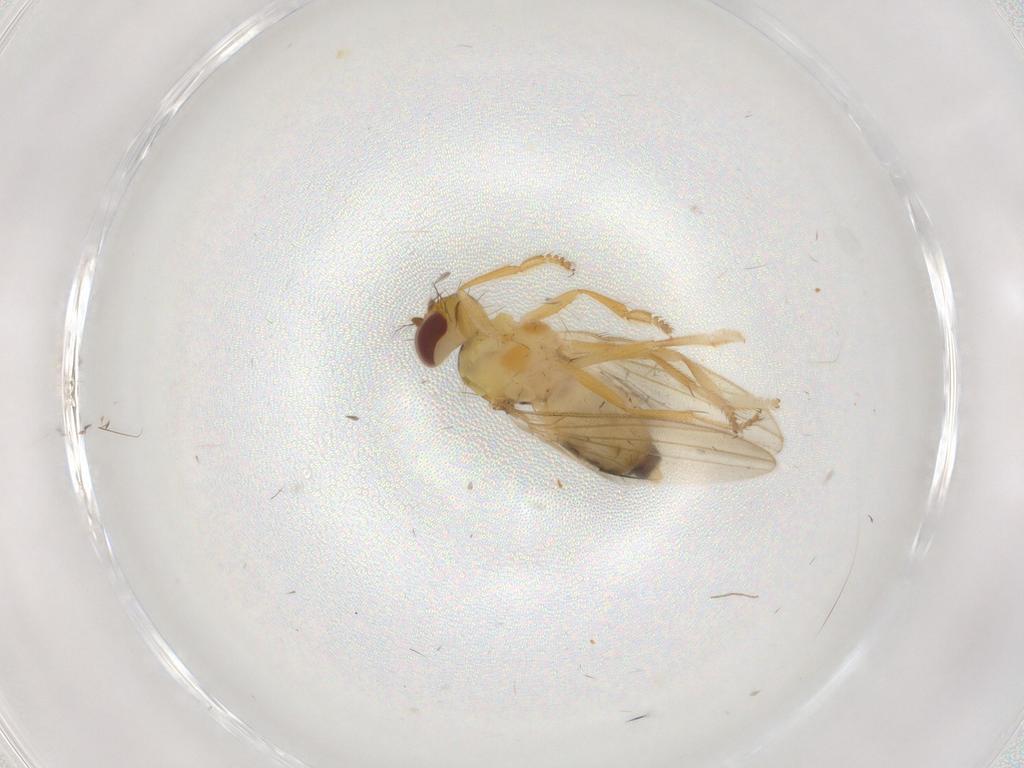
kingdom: Animalia
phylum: Arthropoda
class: Insecta
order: Diptera
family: Periscelididae
